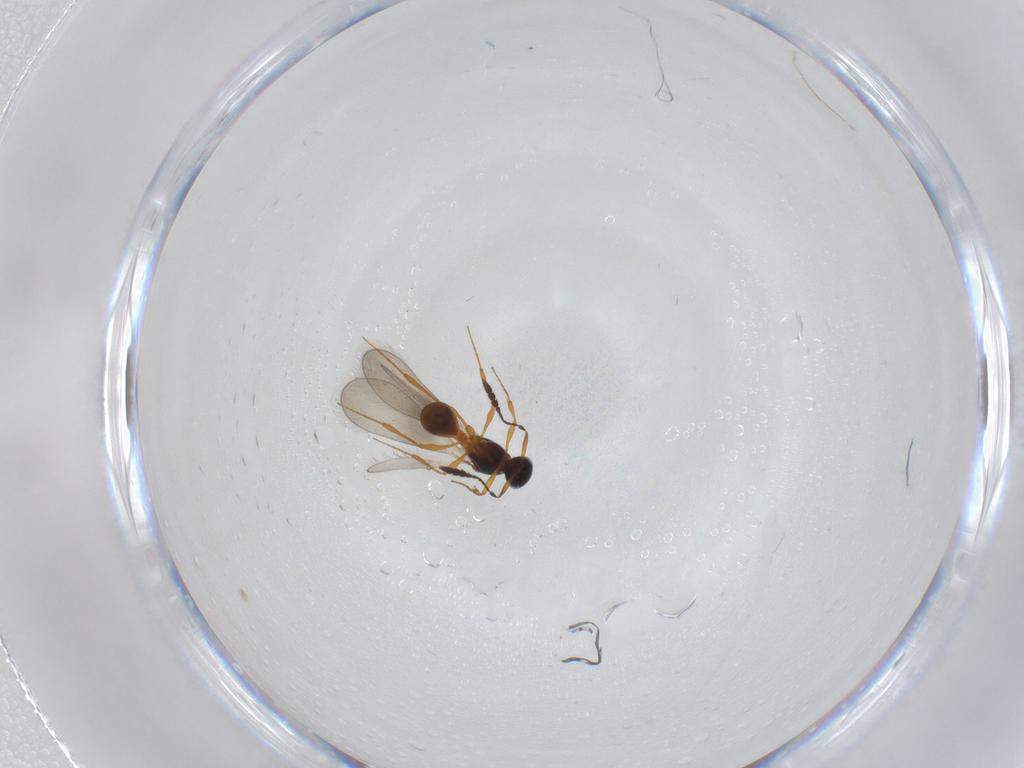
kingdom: Animalia
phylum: Arthropoda
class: Insecta
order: Hymenoptera
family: Platygastridae
